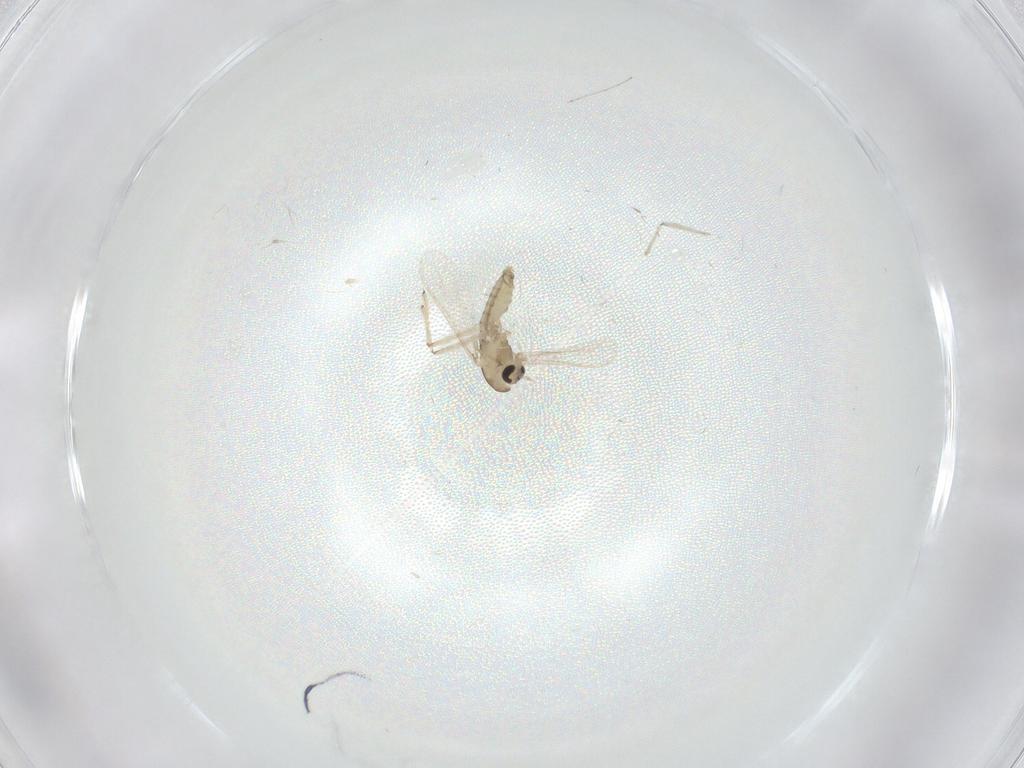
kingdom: Animalia
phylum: Arthropoda
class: Insecta
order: Diptera
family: Chironomidae
